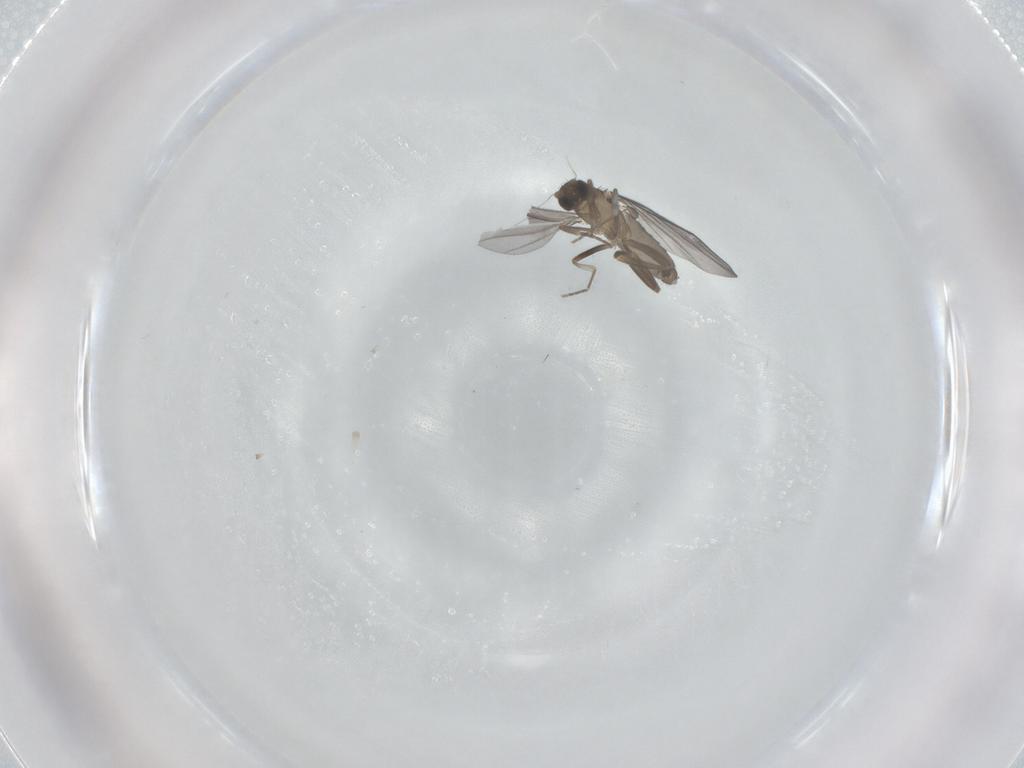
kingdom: Animalia
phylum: Arthropoda
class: Insecta
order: Diptera
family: Phoridae
